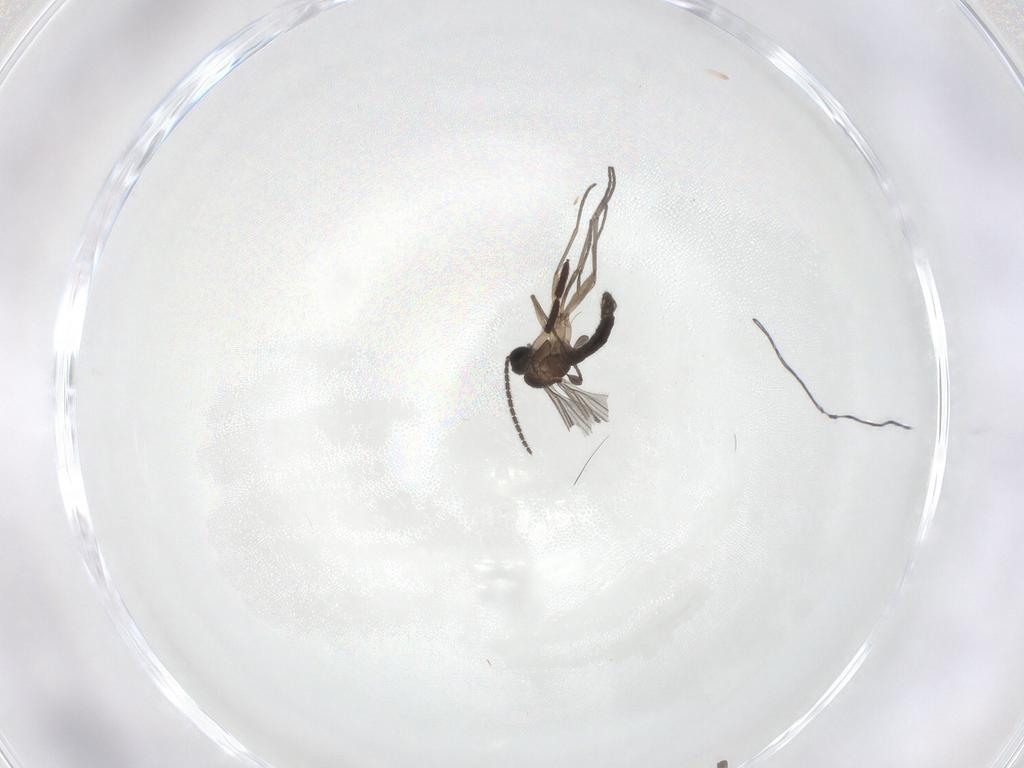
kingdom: Animalia
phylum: Arthropoda
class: Insecta
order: Diptera
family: Sciaridae
